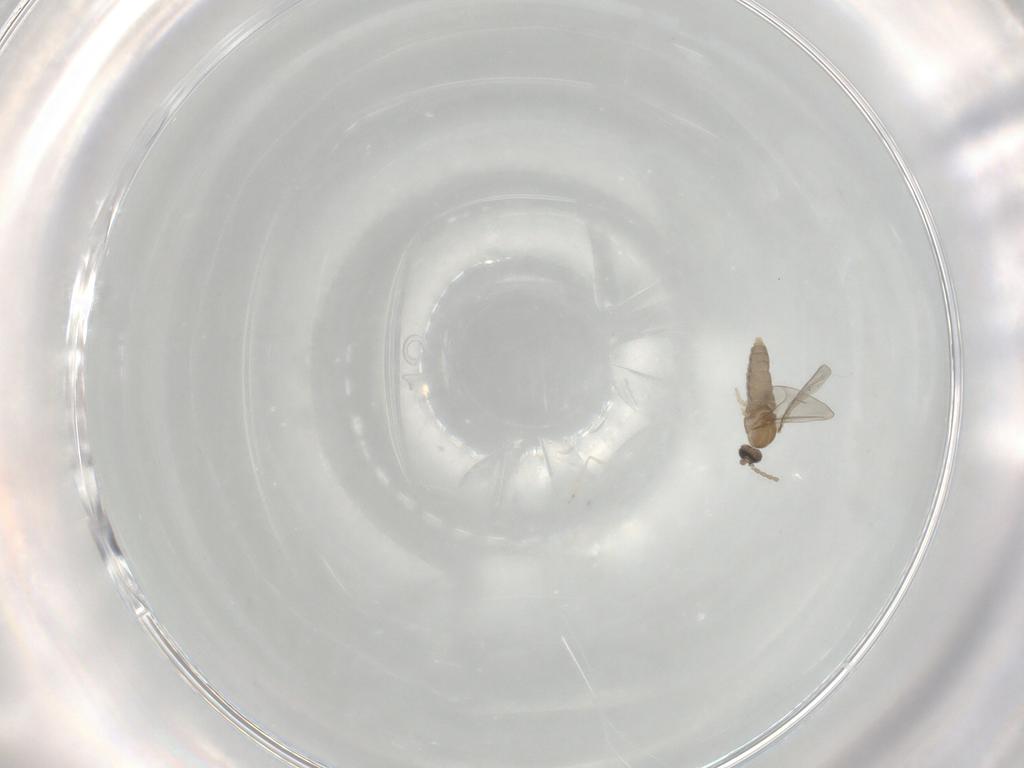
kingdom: Animalia
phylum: Arthropoda
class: Insecta
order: Diptera
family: Cecidomyiidae
